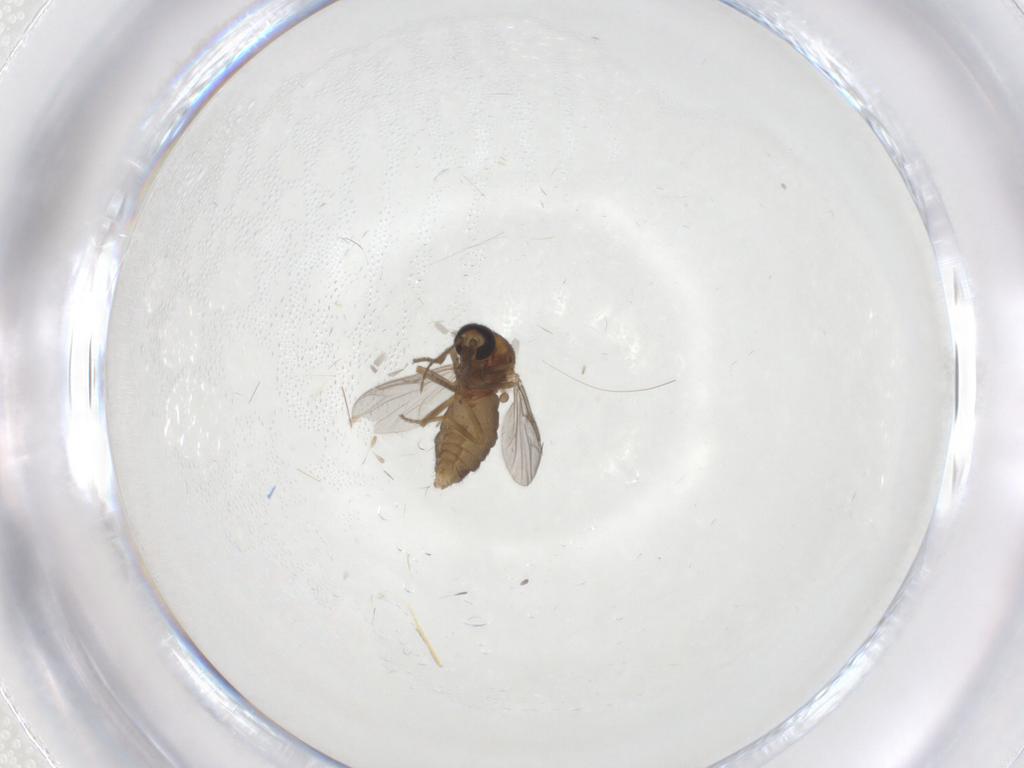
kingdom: Animalia
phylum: Arthropoda
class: Insecta
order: Diptera
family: Ceratopogonidae
